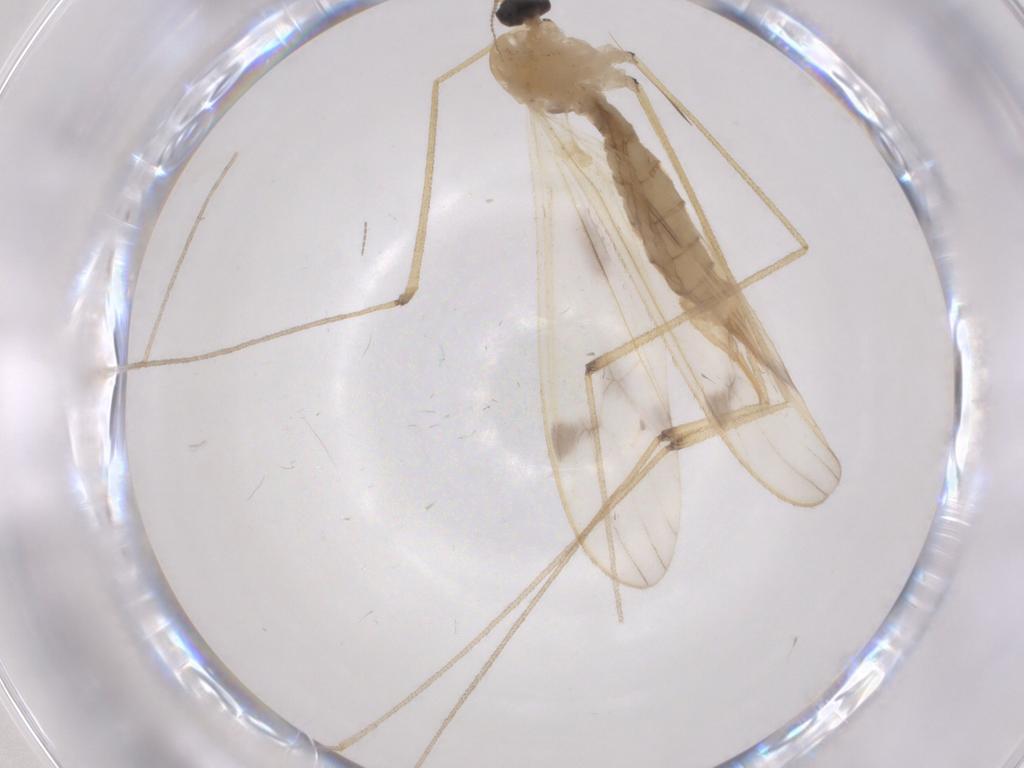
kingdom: Animalia
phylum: Arthropoda
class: Insecta
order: Diptera
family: Limoniidae
